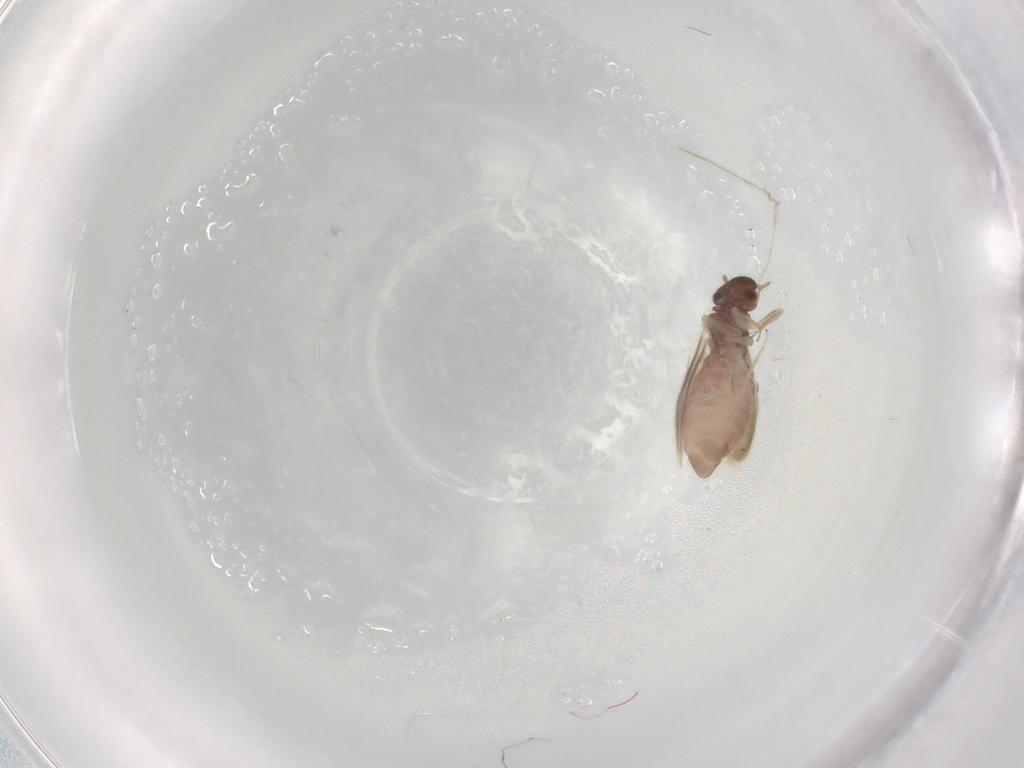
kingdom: Animalia
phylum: Arthropoda
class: Insecta
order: Psocodea
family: Archipsocidae
